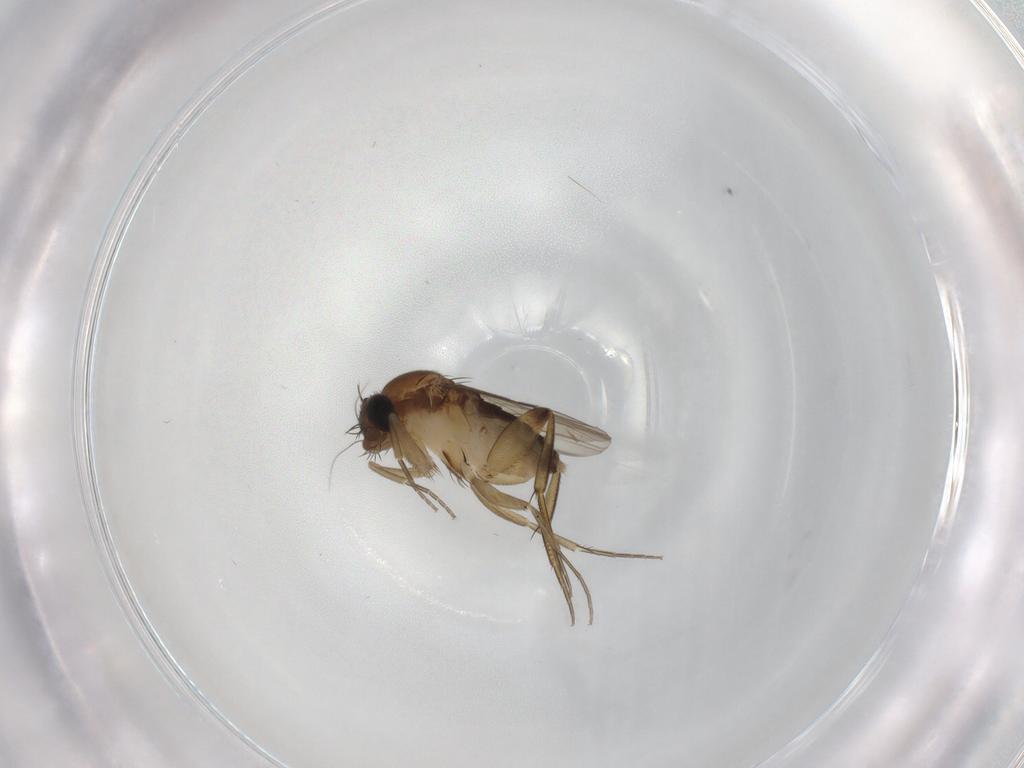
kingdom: Animalia
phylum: Arthropoda
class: Insecta
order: Diptera
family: Phoridae
